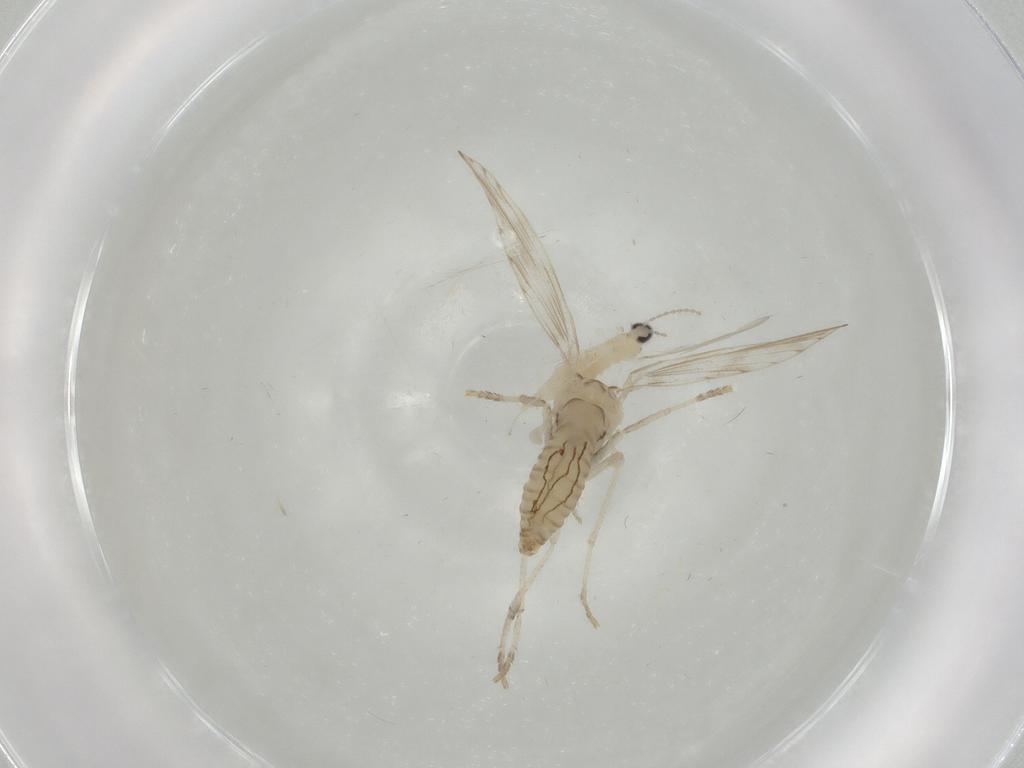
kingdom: Animalia
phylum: Arthropoda
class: Insecta
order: Diptera
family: Psychodidae
